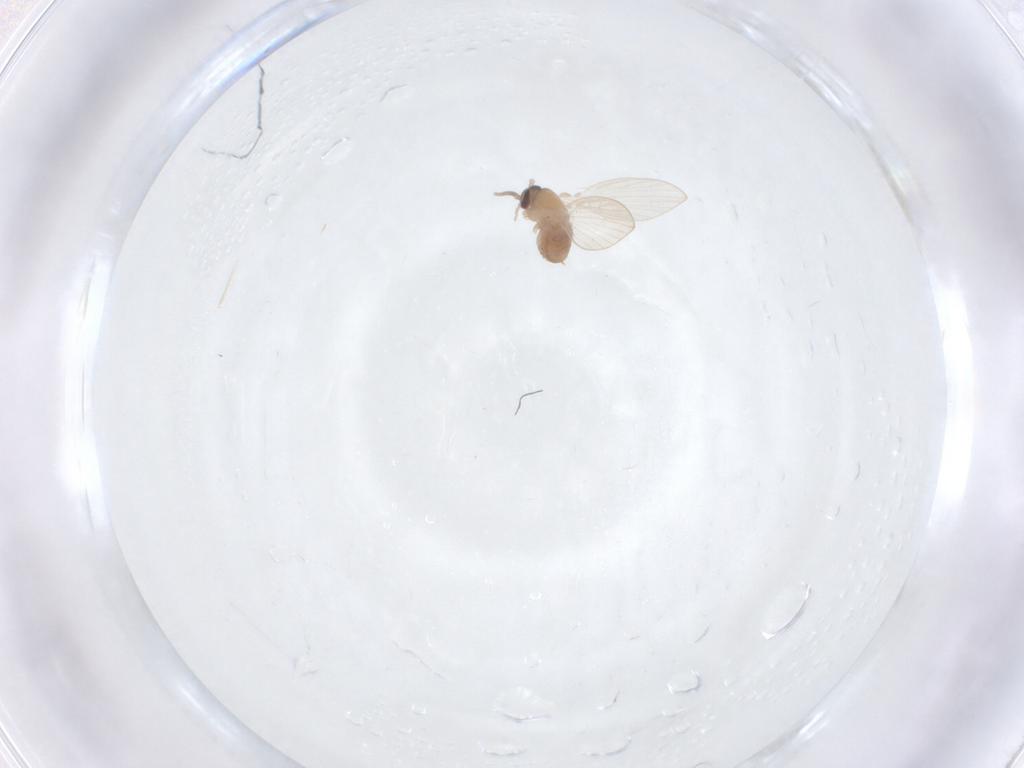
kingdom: Animalia
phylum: Arthropoda
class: Insecta
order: Diptera
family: Psychodidae
